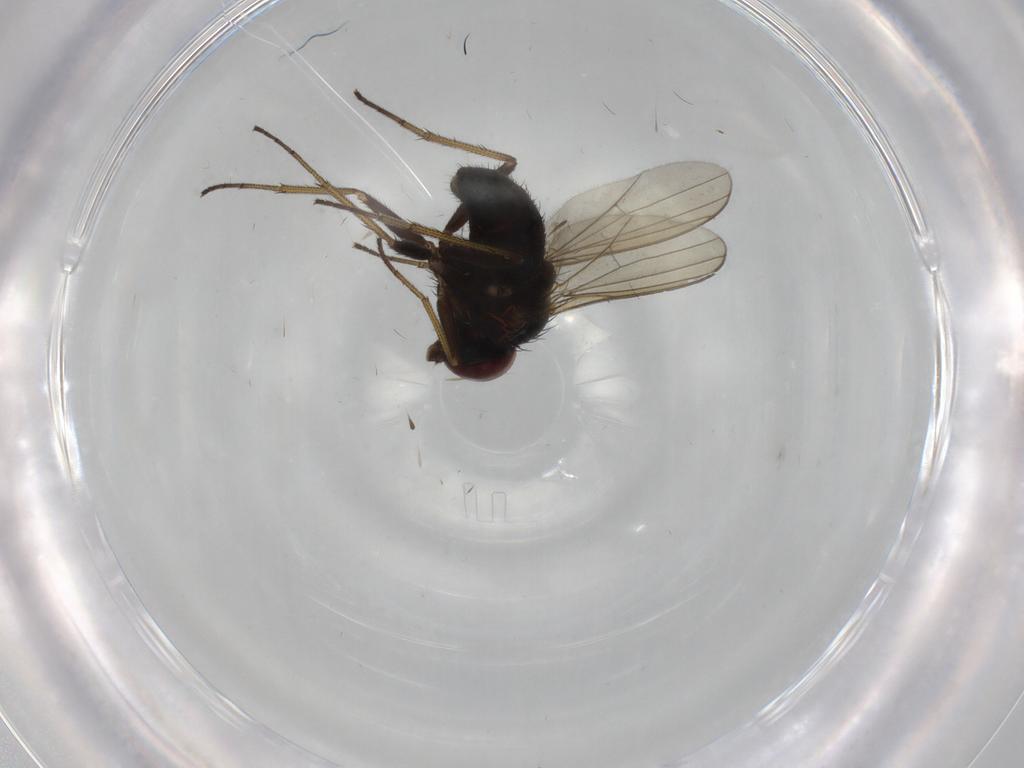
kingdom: Animalia
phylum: Arthropoda
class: Insecta
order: Diptera
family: Dolichopodidae
